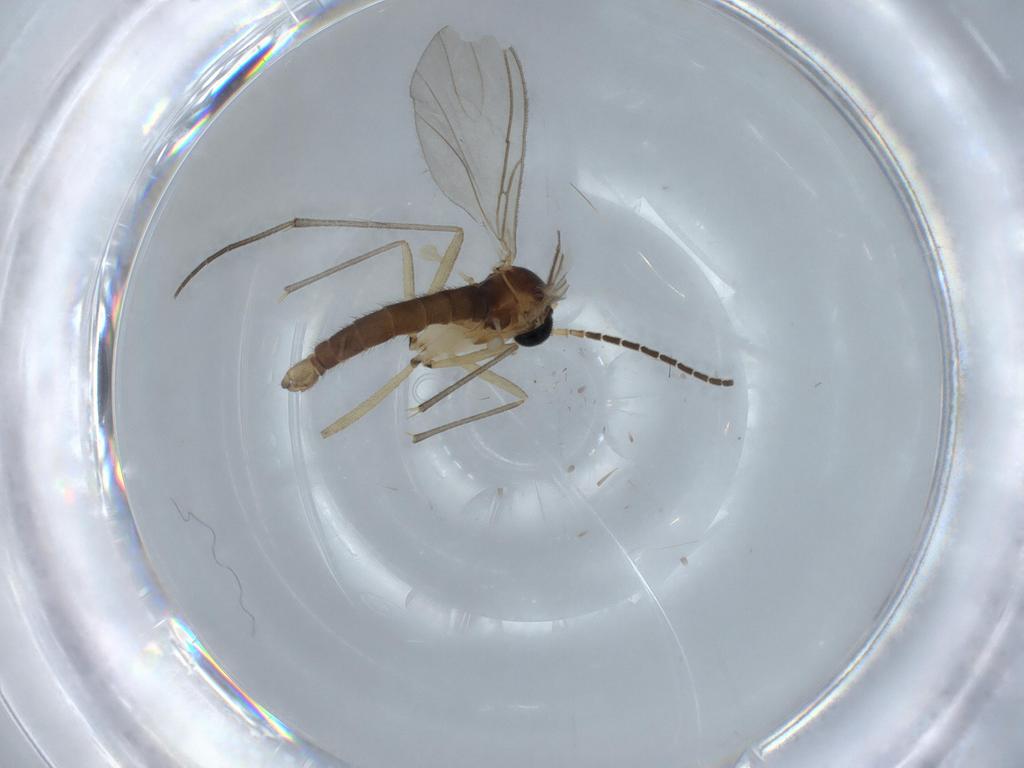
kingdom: Animalia
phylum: Arthropoda
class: Insecta
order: Diptera
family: Sciaridae
